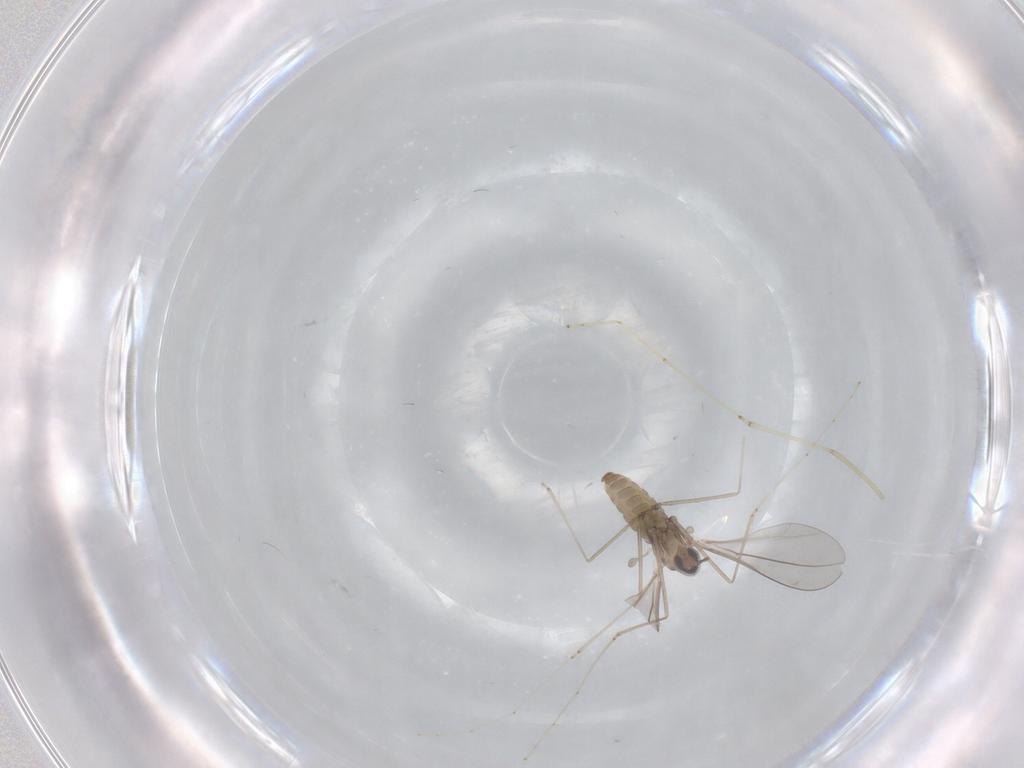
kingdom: Animalia
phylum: Arthropoda
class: Insecta
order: Diptera
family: Cecidomyiidae
